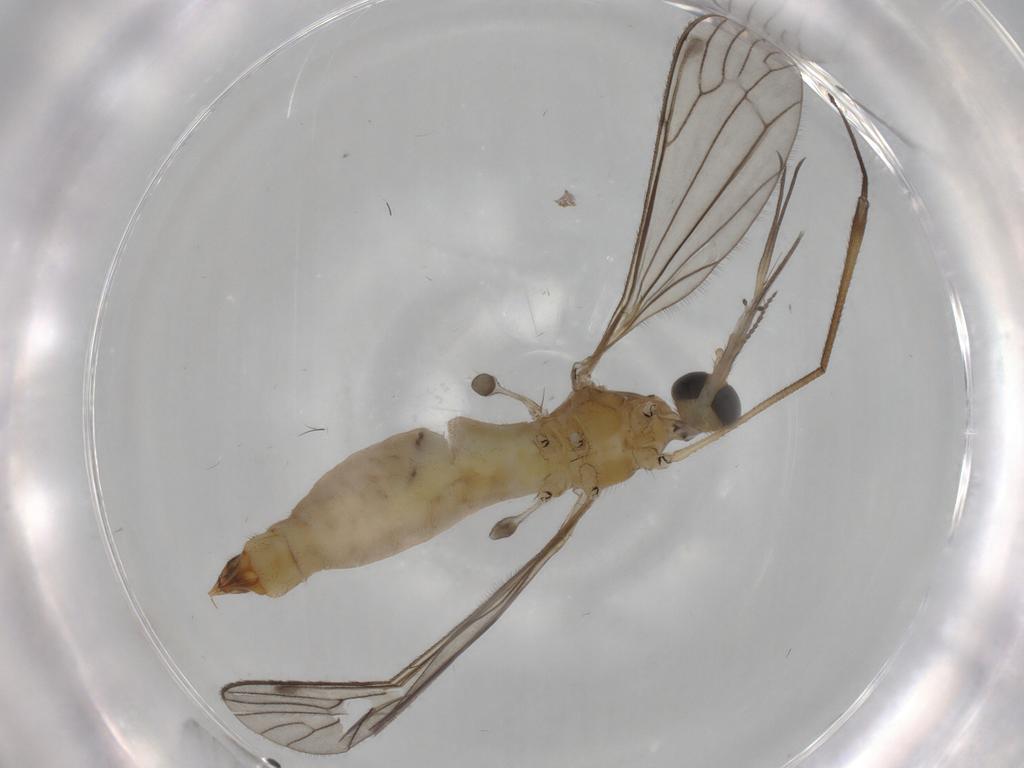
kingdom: Animalia
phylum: Arthropoda
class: Insecta
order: Diptera
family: Limoniidae
